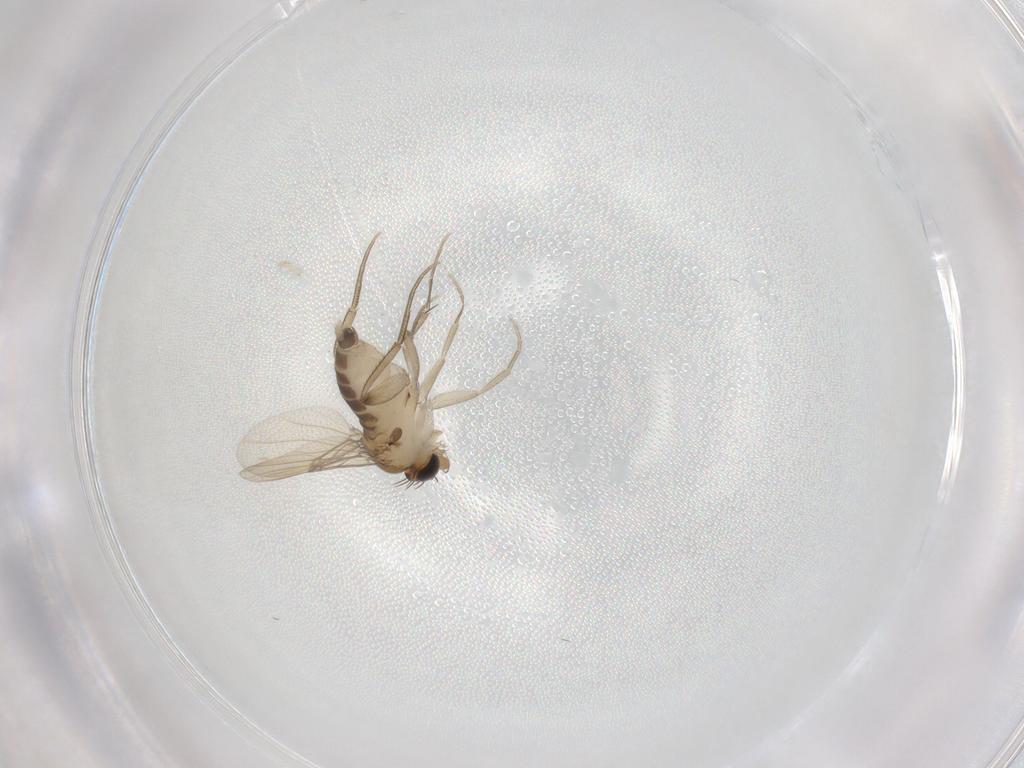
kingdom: Animalia
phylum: Arthropoda
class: Insecta
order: Diptera
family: Phoridae
